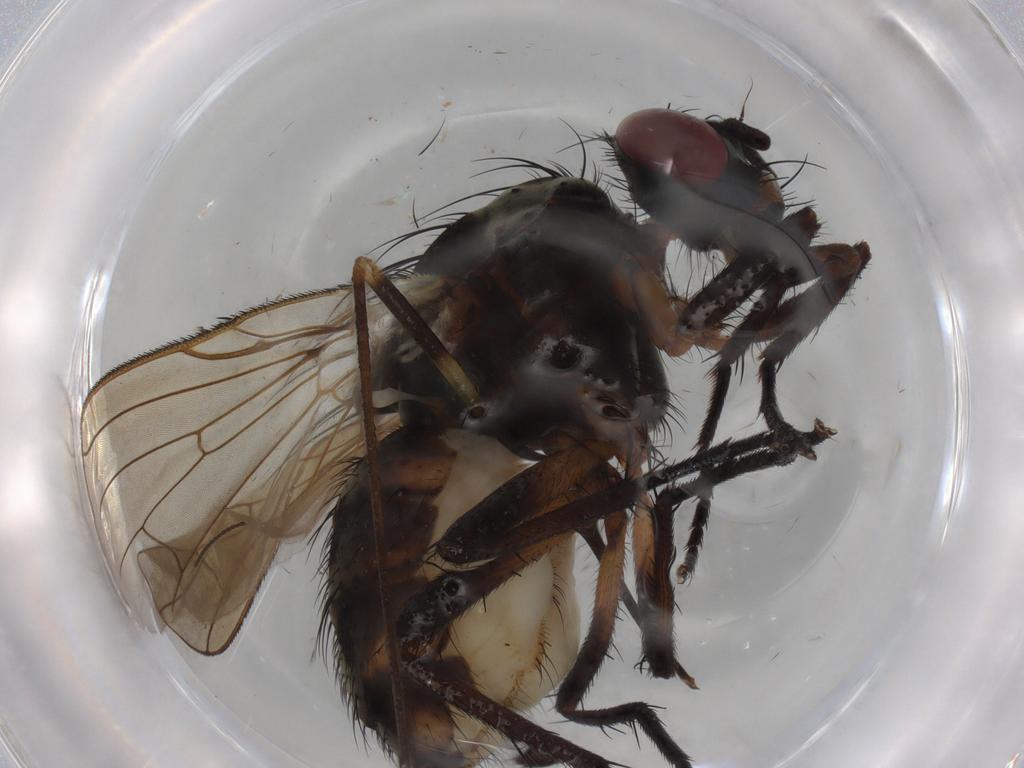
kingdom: Animalia
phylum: Arthropoda
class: Insecta
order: Diptera
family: Anthomyiidae
